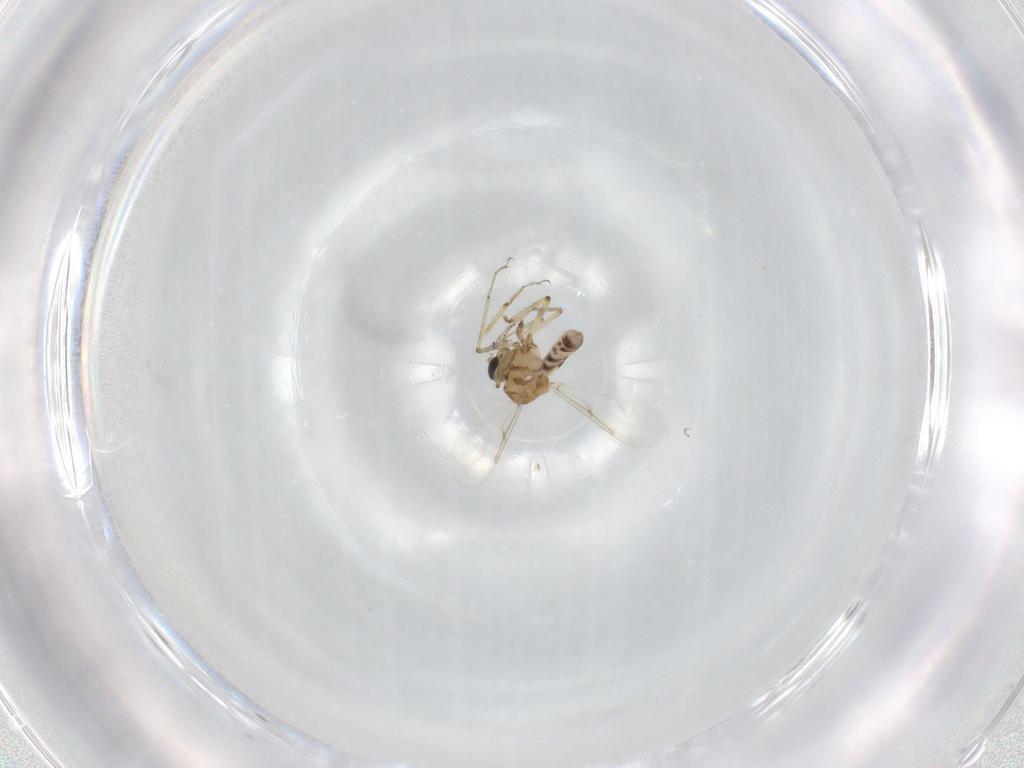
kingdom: Animalia
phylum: Arthropoda
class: Insecta
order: Diptera
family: Ceratopogonidae
